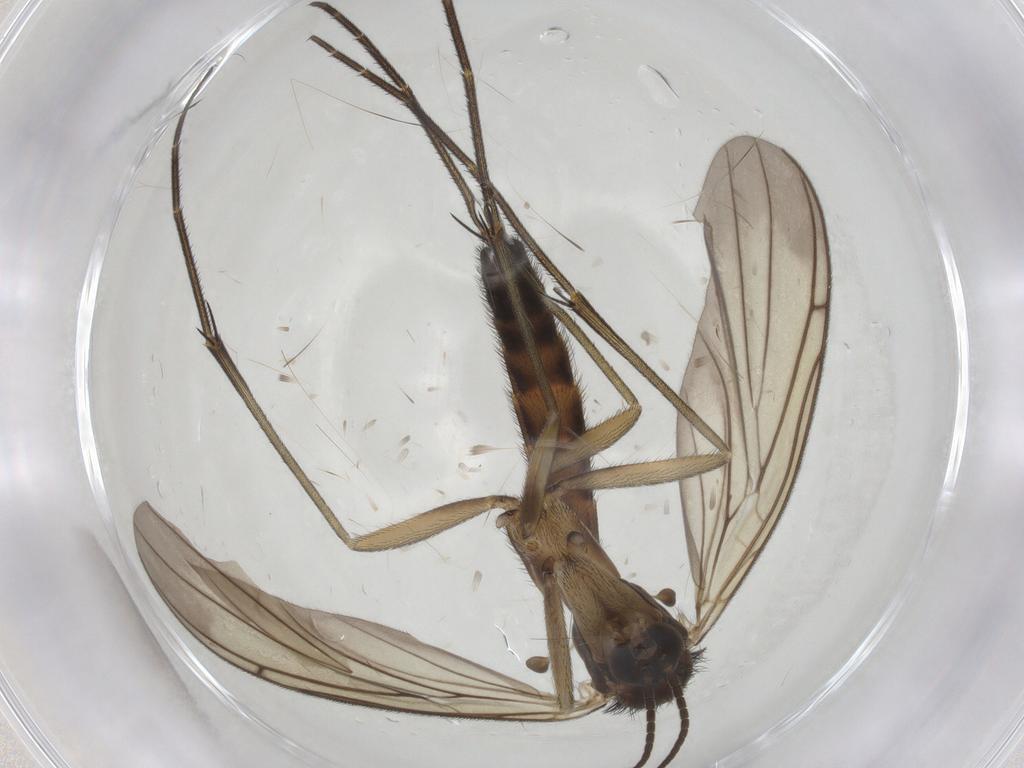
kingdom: Animalia
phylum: Arthropoda
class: Insecta
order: Diptera
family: Keroplatidae
